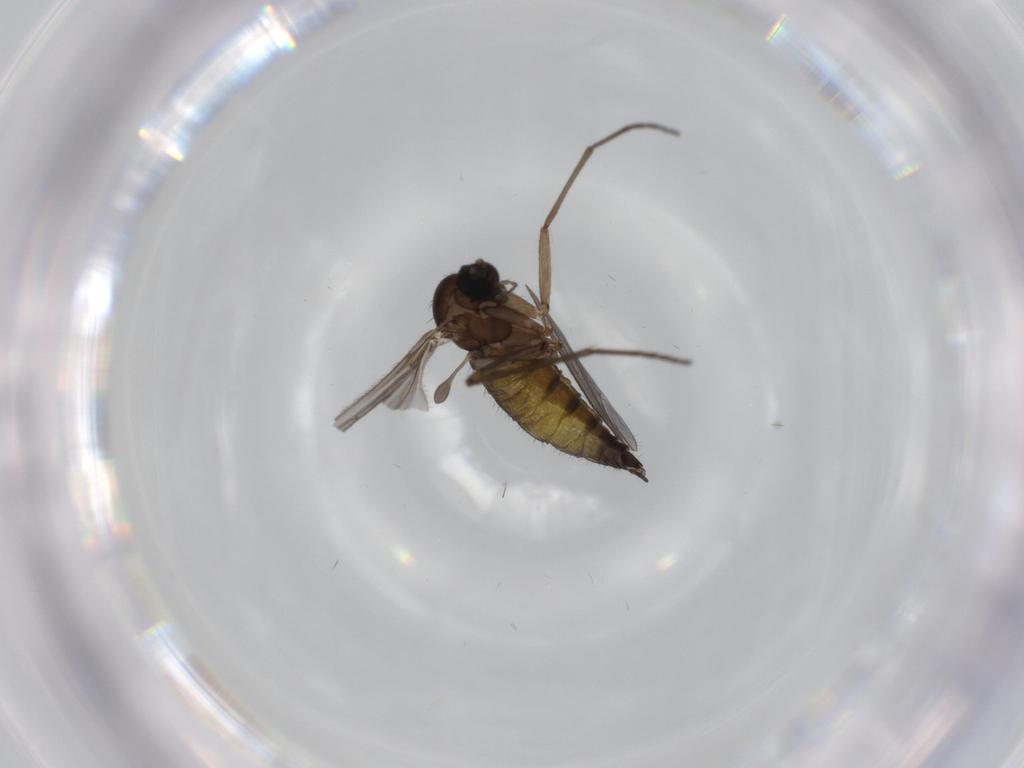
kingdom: Animalia
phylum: Arthropoda
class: Insecta
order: Diptera
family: Sciaridae
